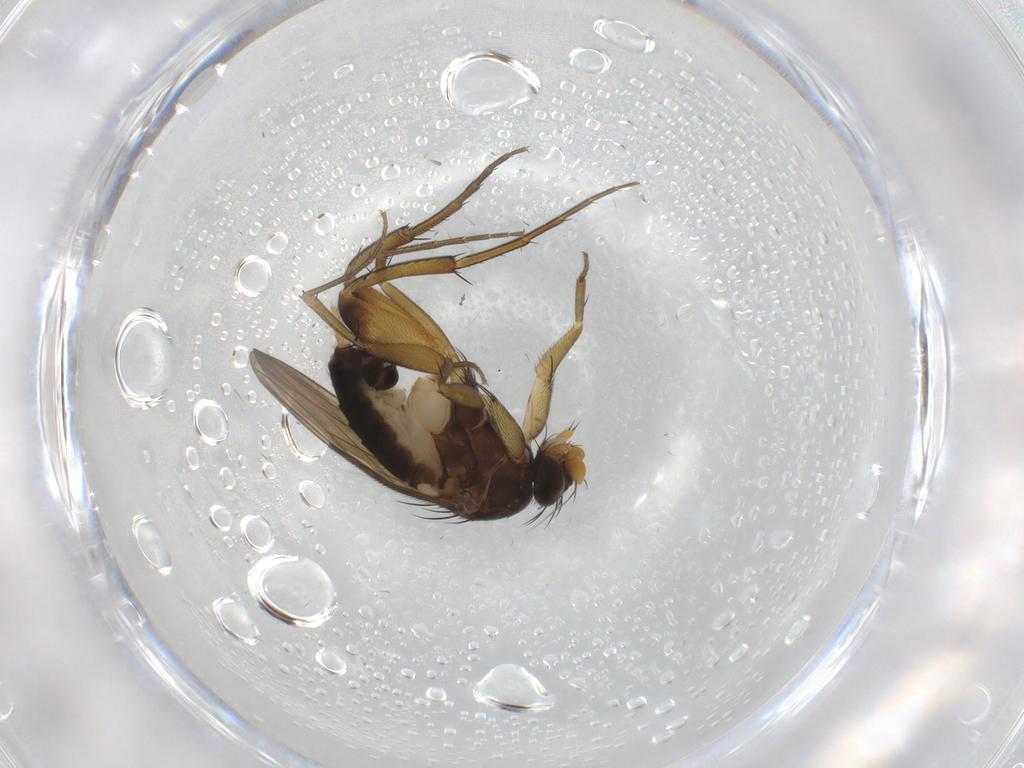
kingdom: Animalia
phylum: Arthropoda
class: Insecta
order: Diptera
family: Phoridae
